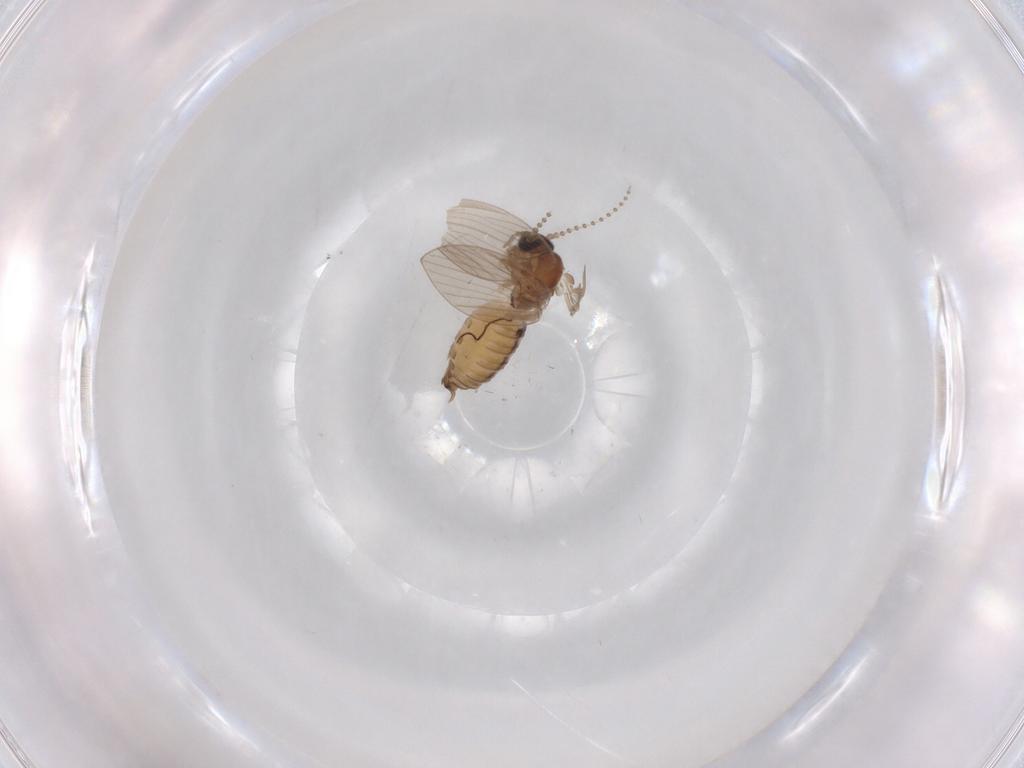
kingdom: Animalia
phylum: Arthropoda
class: Insecta
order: Diptera
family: Psychodidae
